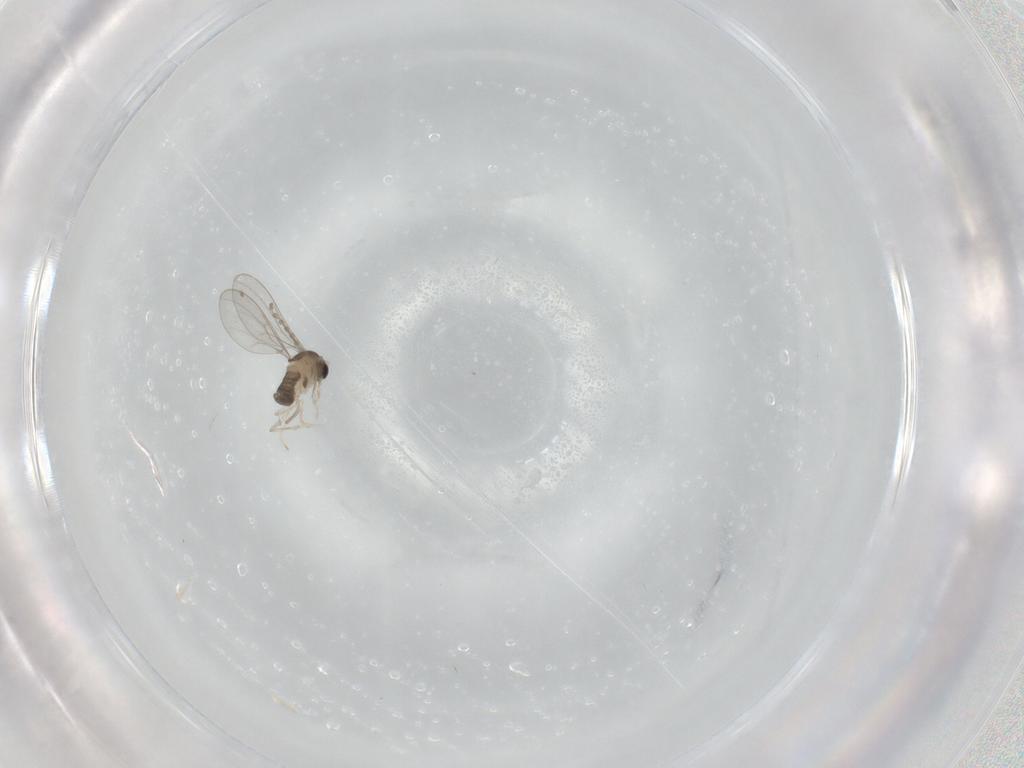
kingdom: Animalia
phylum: Arthropoda
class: Insecta
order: Diptera
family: Cecidomyiidae
